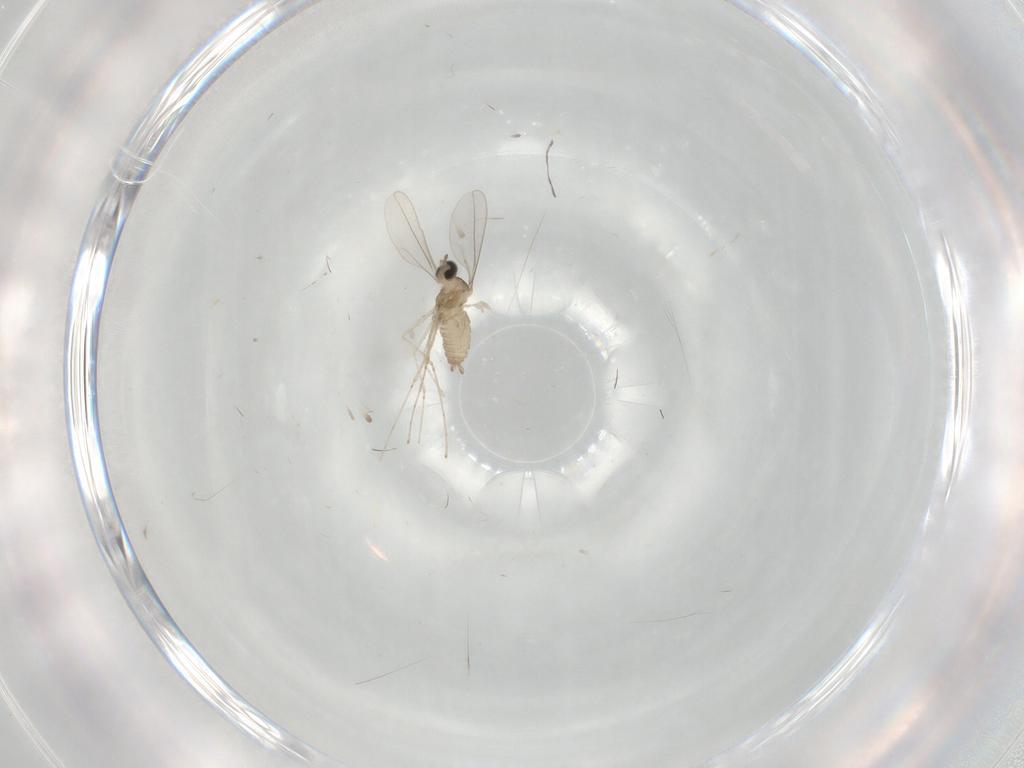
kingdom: Animalia
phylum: Arthropoda
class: Insecta
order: Diptera
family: Cecidomyiidae
